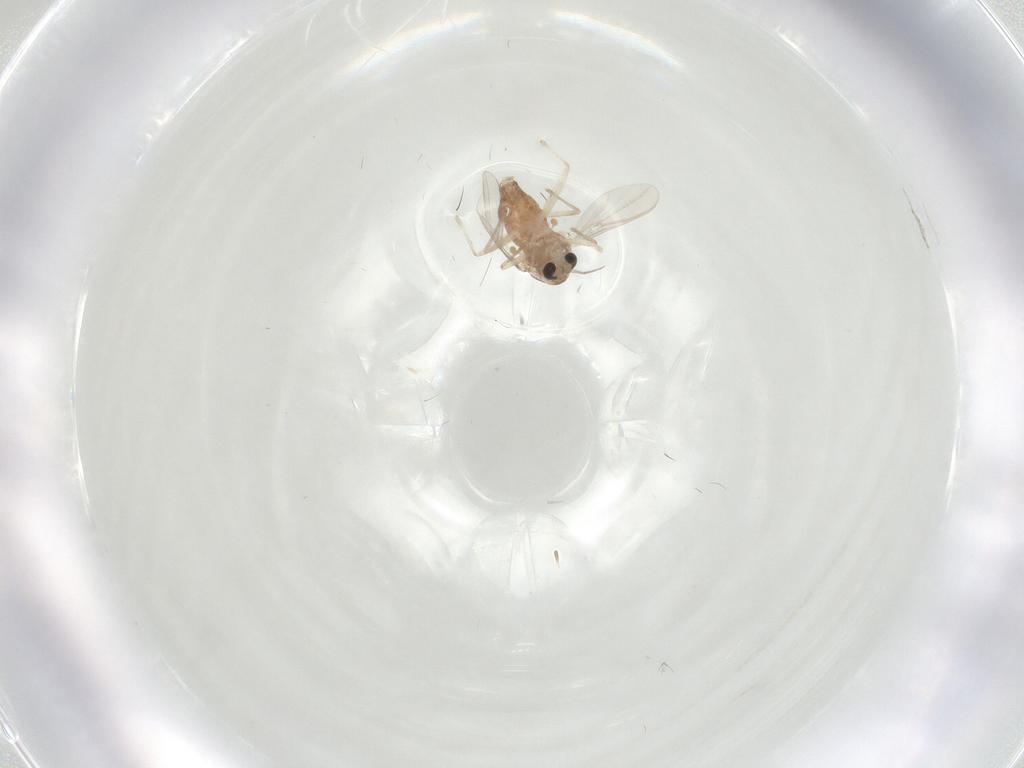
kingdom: Animalia
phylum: Arthropoda
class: Insecta
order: Diptera
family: Chironomidae
